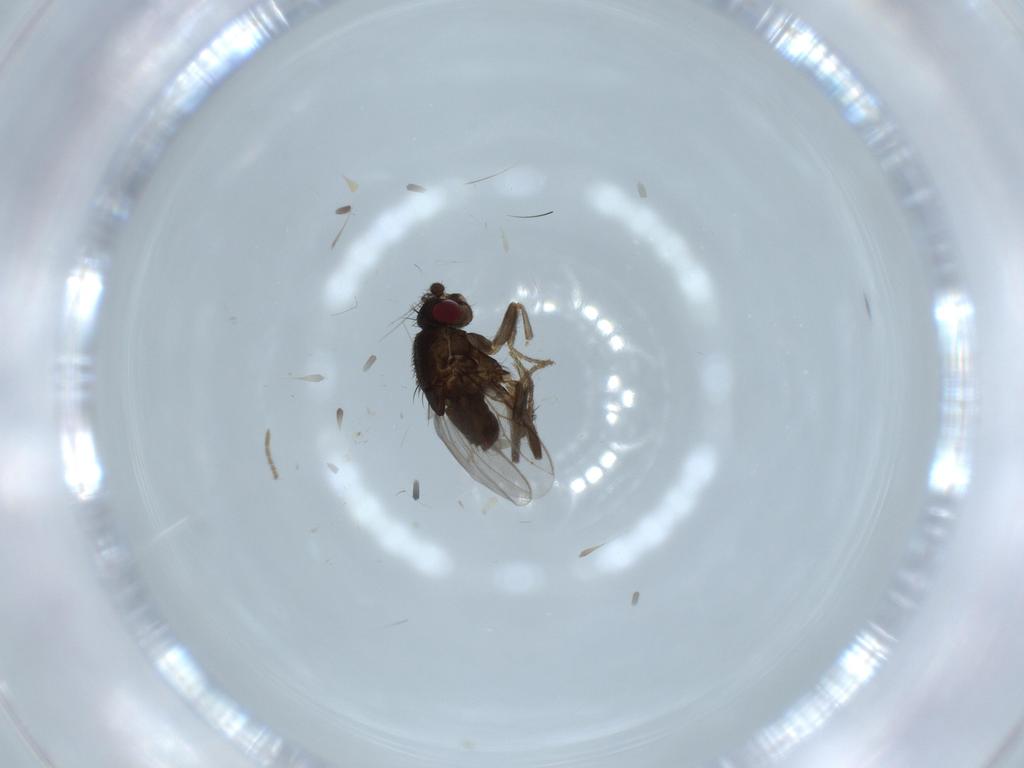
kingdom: Animalia
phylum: Arthropoda
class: Insecta
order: Diptera
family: Sphaeroceridae
